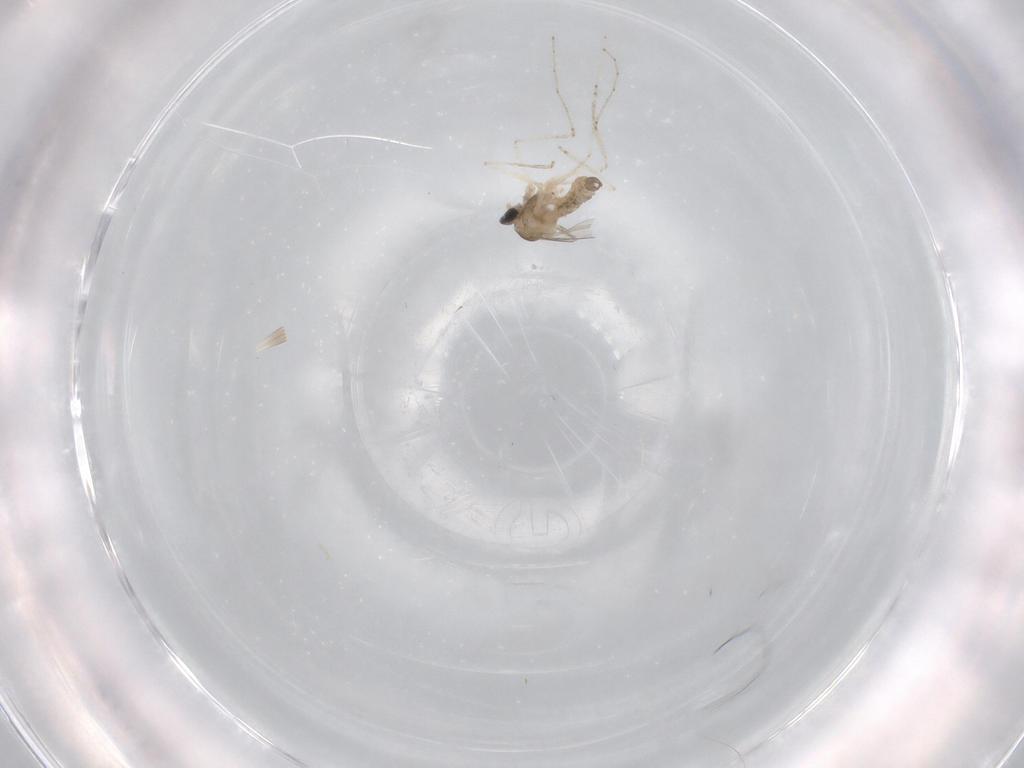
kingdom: Animalia
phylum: Arthropoda
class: Insecta
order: Diptera
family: Cecidomyiidae
